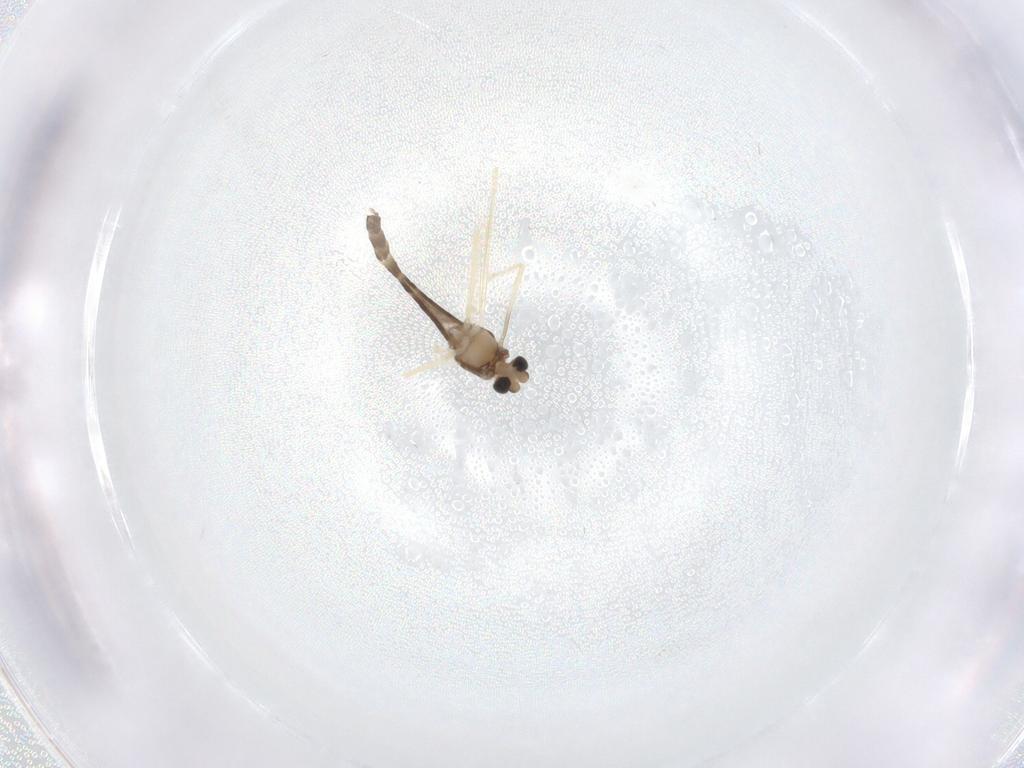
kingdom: Animalia
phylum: Arthropoda
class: Insecta
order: Diptera
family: Chironomidae
